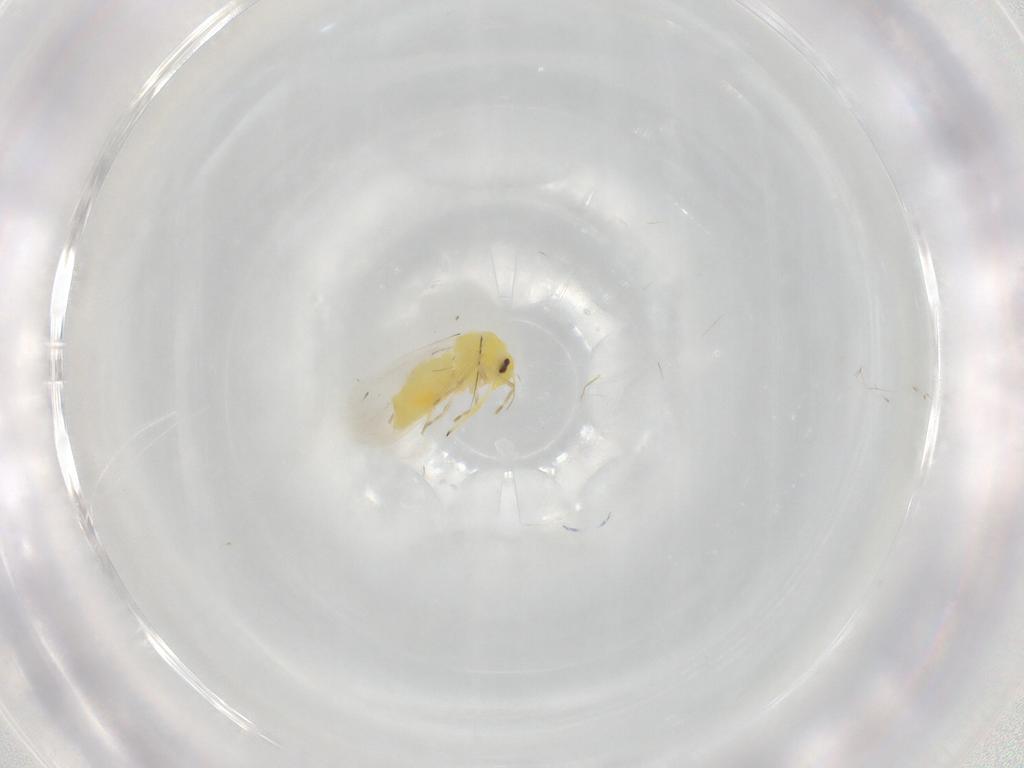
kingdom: Animalia
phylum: Arthropoda
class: Insecta
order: Hemiptera
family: Aleyrodidae
